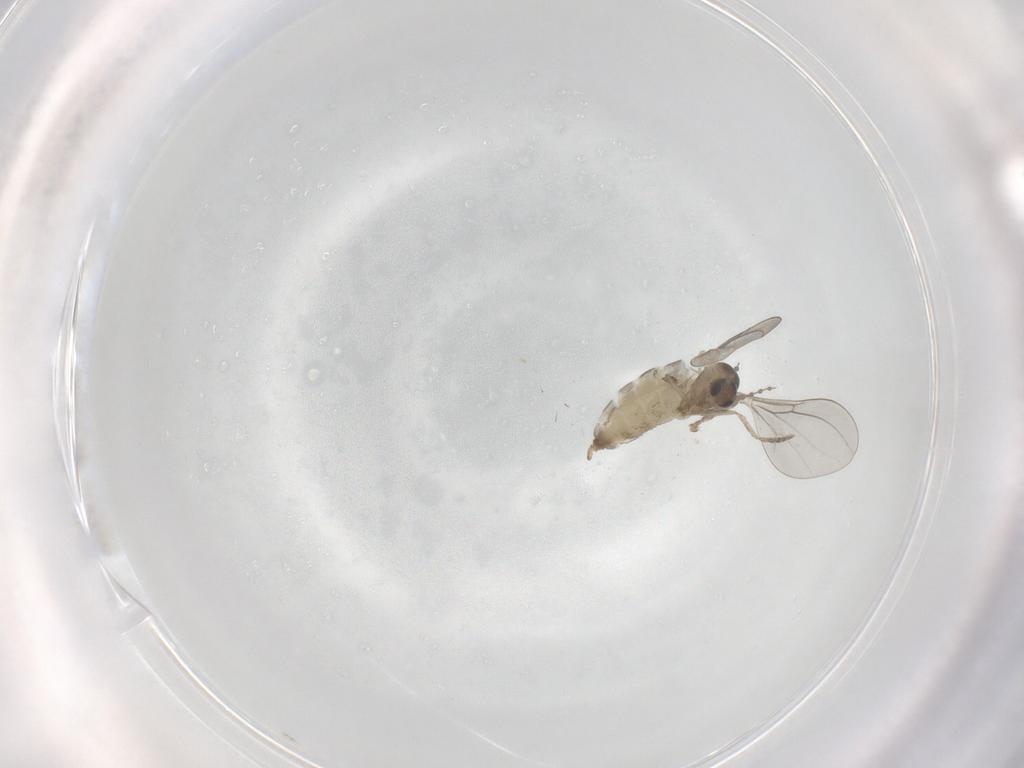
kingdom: Animalia
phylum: Arthropoda
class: Insecta
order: Diptera
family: Cecidomyiidae
